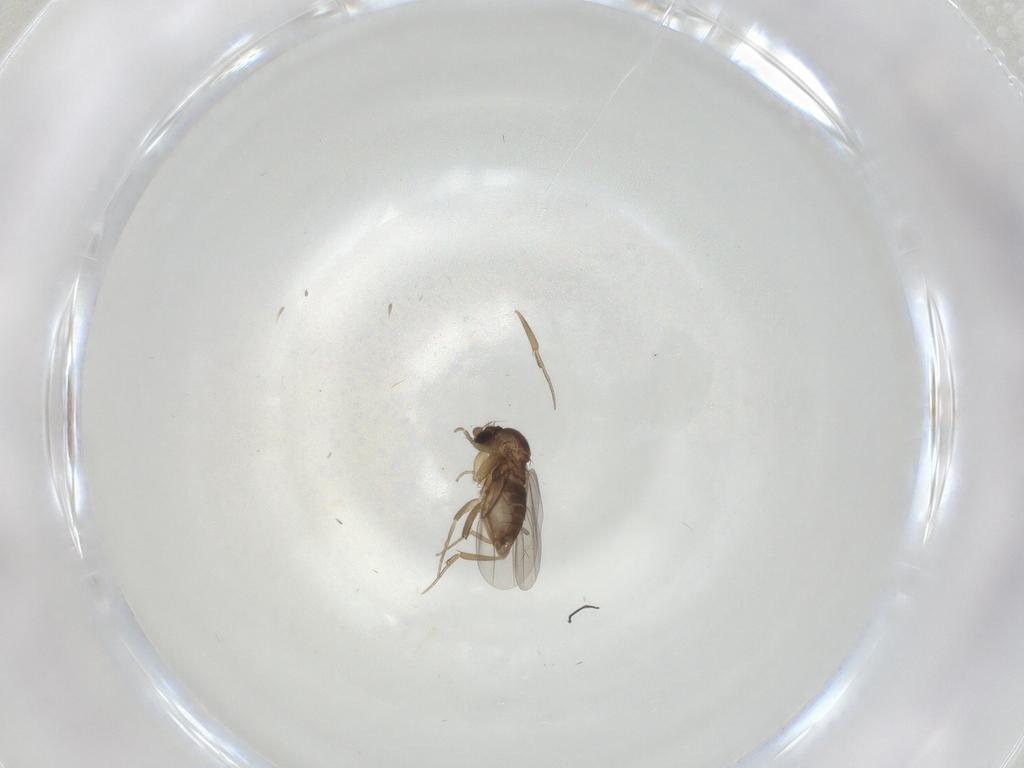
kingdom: Animalia
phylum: Arthropoda
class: Insecta
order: Diptera
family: Phoridae
